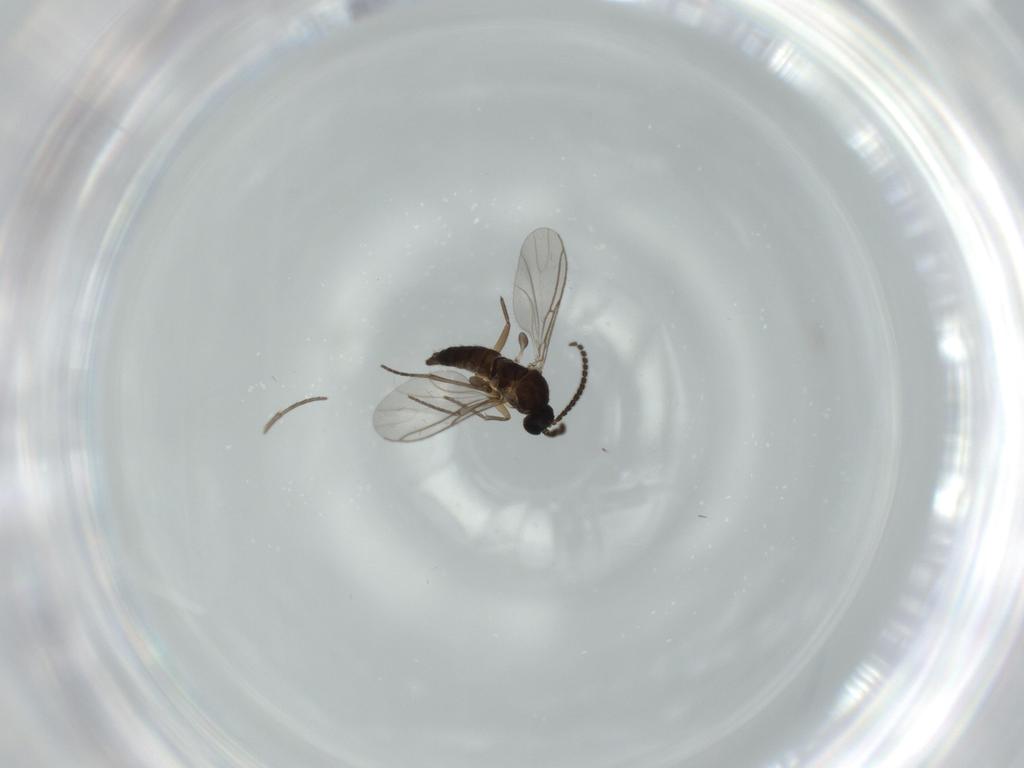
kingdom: Animalia
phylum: Arthropoda
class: Insecta
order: Diptera
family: Sciaridae
